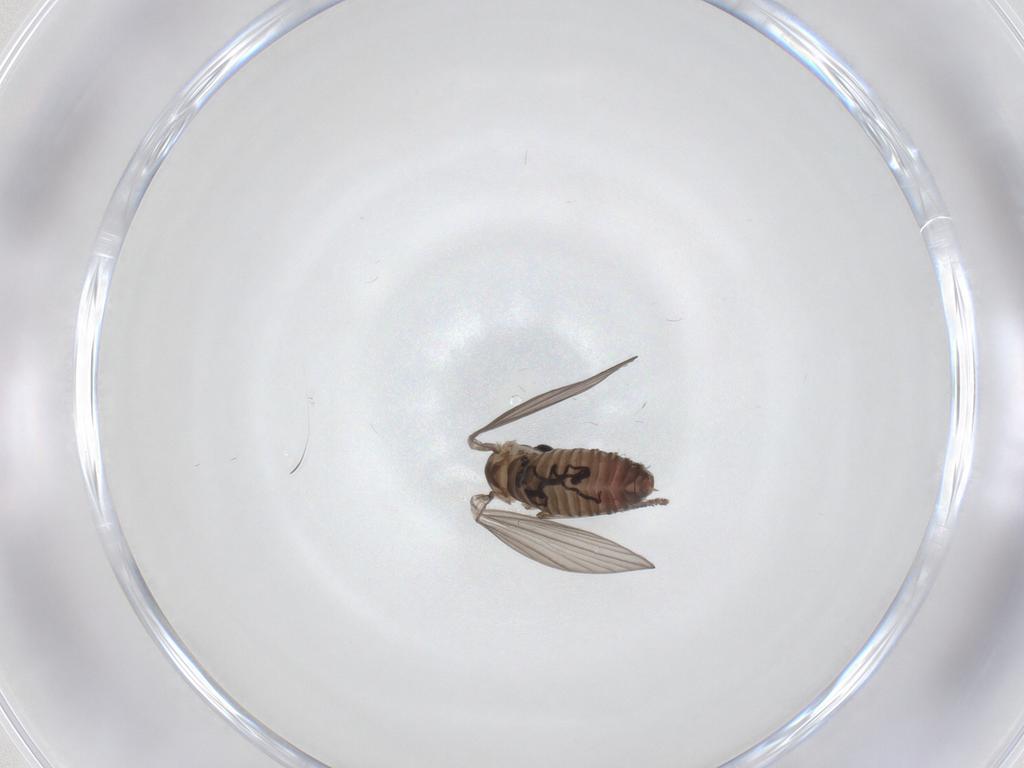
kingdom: Animalia
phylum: Arthropoda
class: Insecta
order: Diptera
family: Psychodidae
